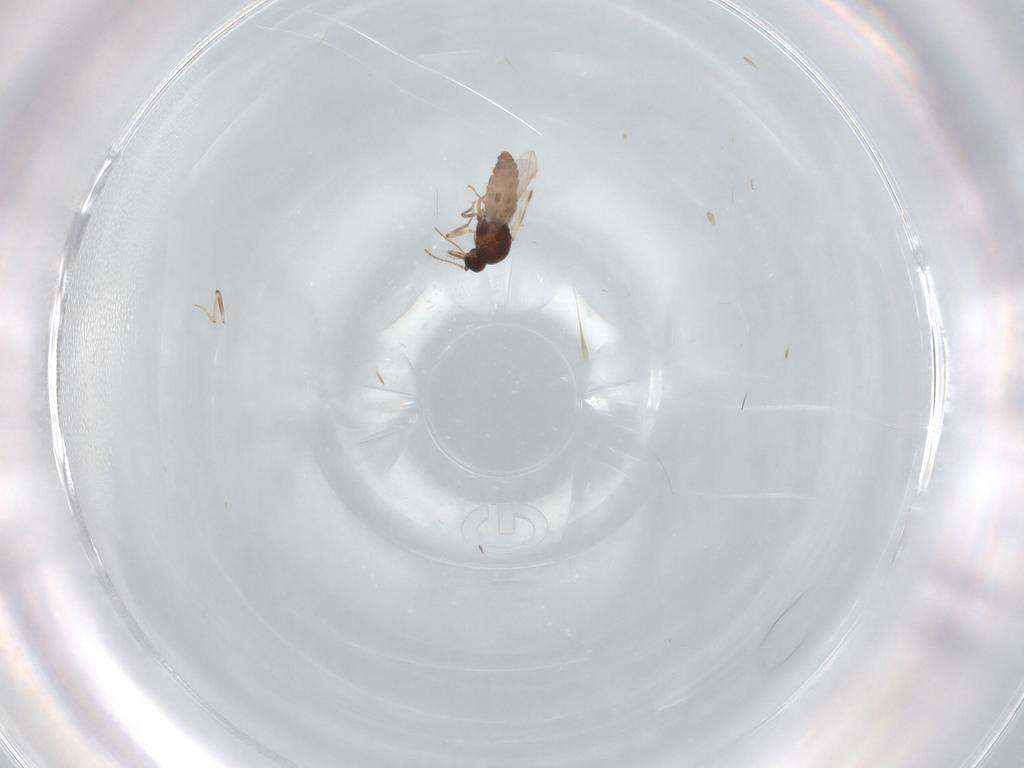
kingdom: Animalia
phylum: Arthropoda
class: Insecta
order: Diptera
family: Scatopsidae
